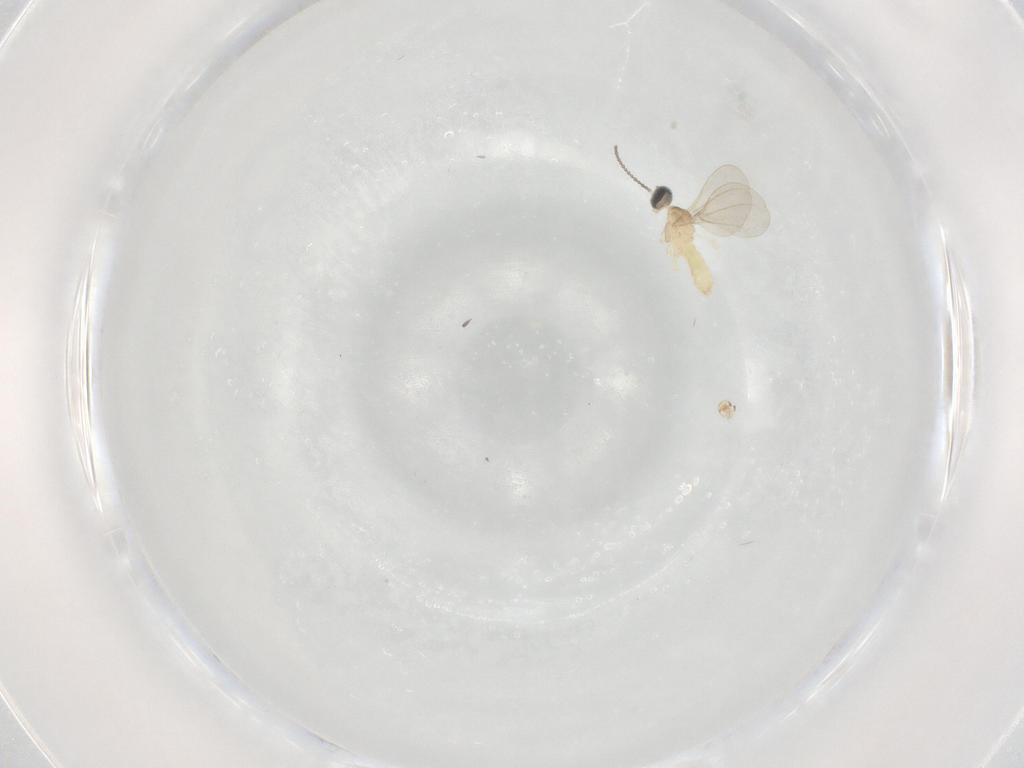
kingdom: Animalia
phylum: Arthropoda
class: Insecta
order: Diptera
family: Cecidomyiidae
